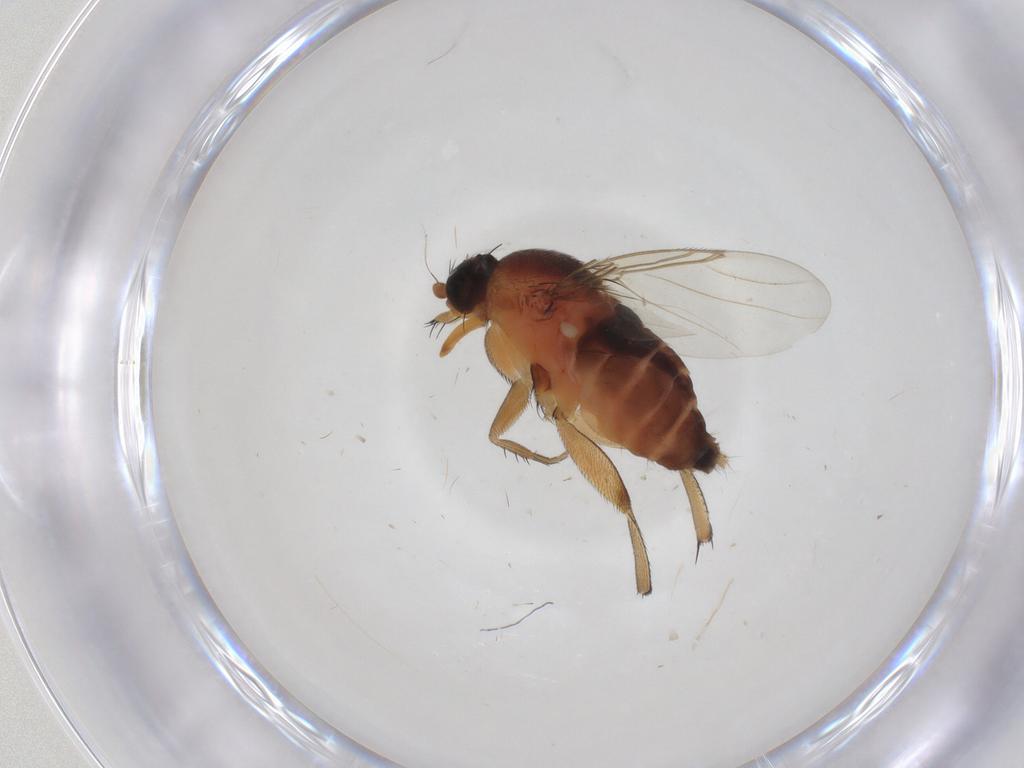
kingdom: Animalia
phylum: Arthropoda
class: Insecta
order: Diptera
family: Phoridae
